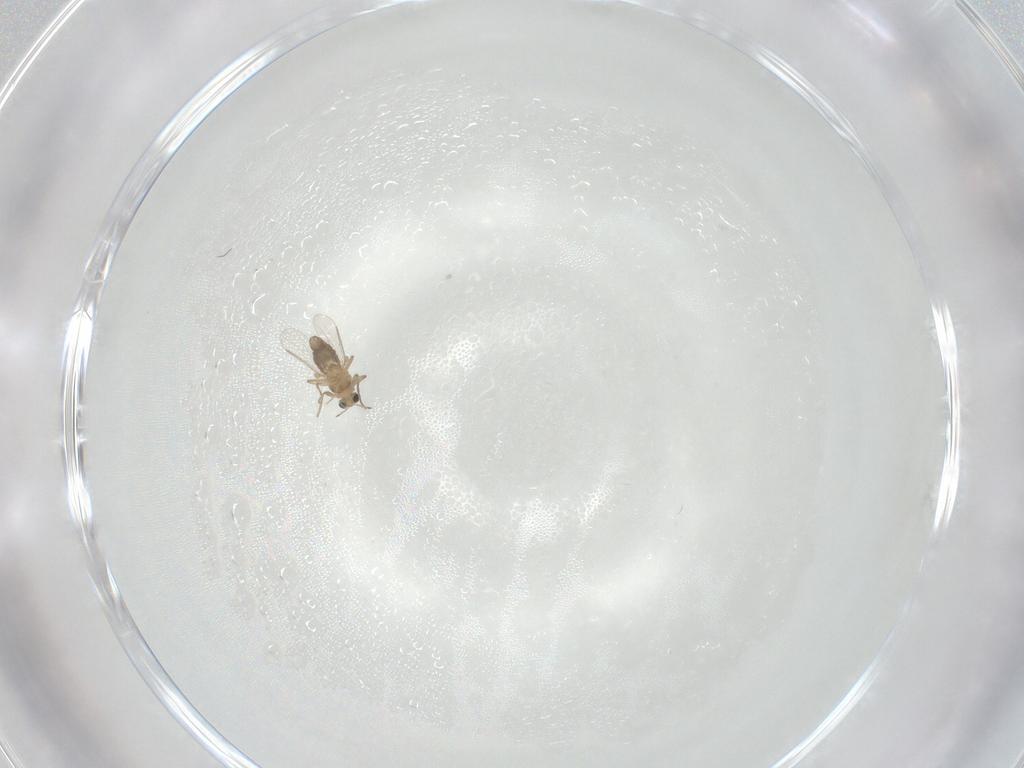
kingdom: Animalia
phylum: Arthropoda
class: Insecta
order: Diptera
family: Chironomidae
